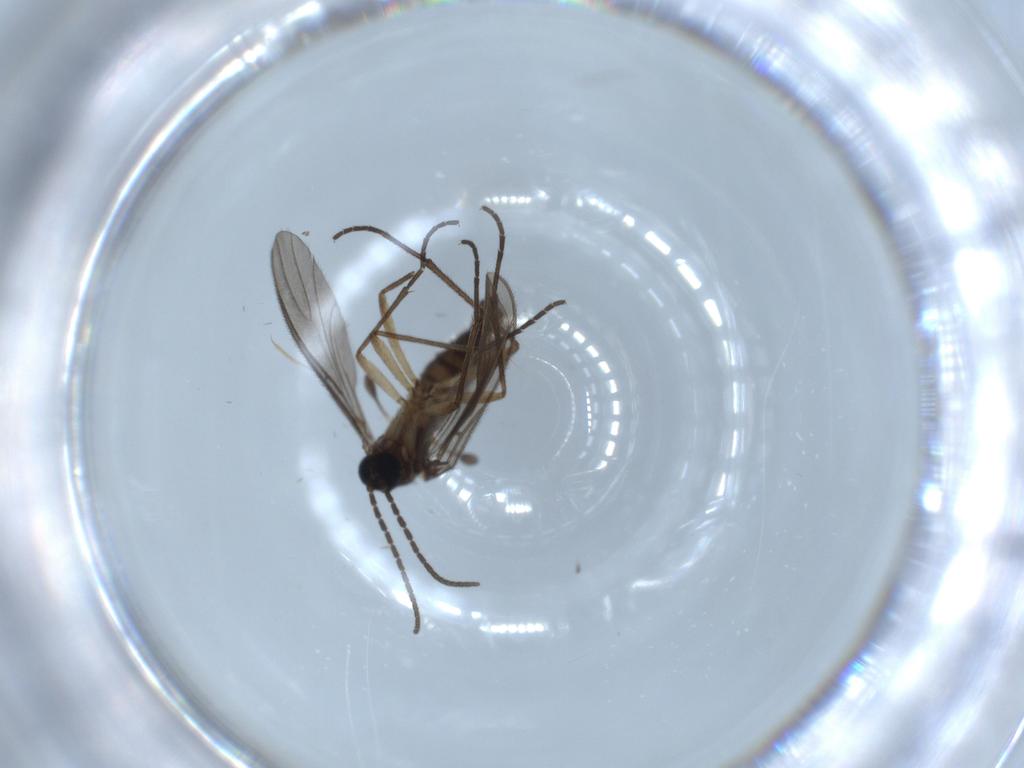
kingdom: Animalia
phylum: Arthropoda
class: Insecta
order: Diptera
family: Sciaridae
